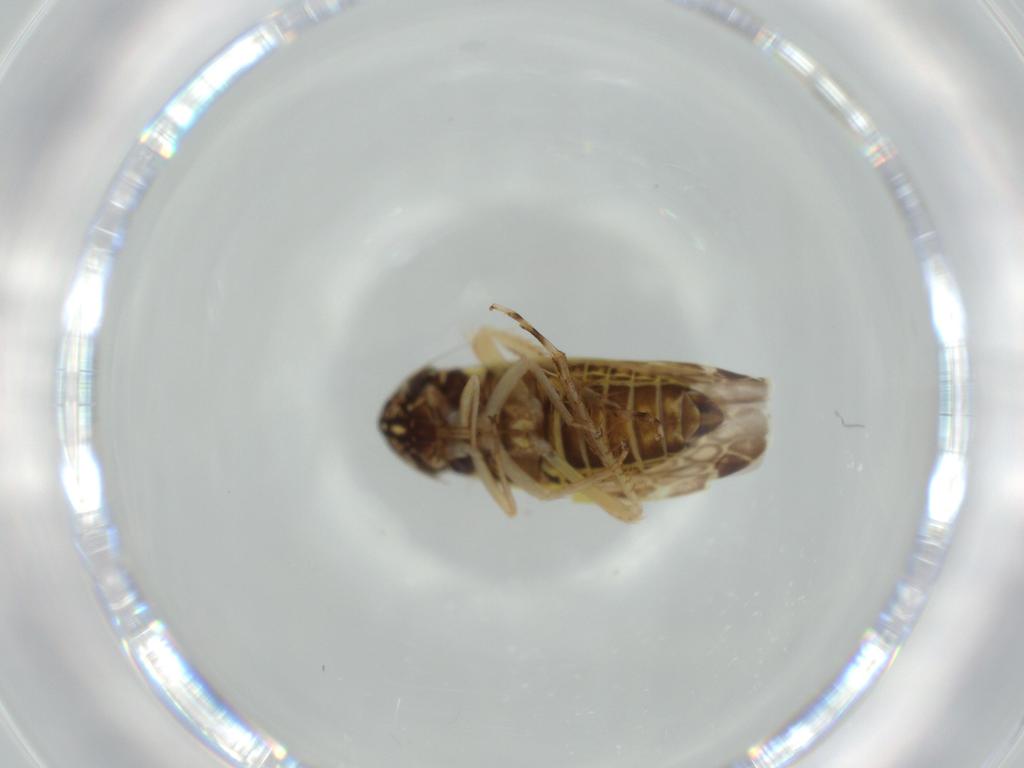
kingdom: Animalia
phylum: Arthropoda
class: Insecta
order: Hemiptera
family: Cicadellidae
